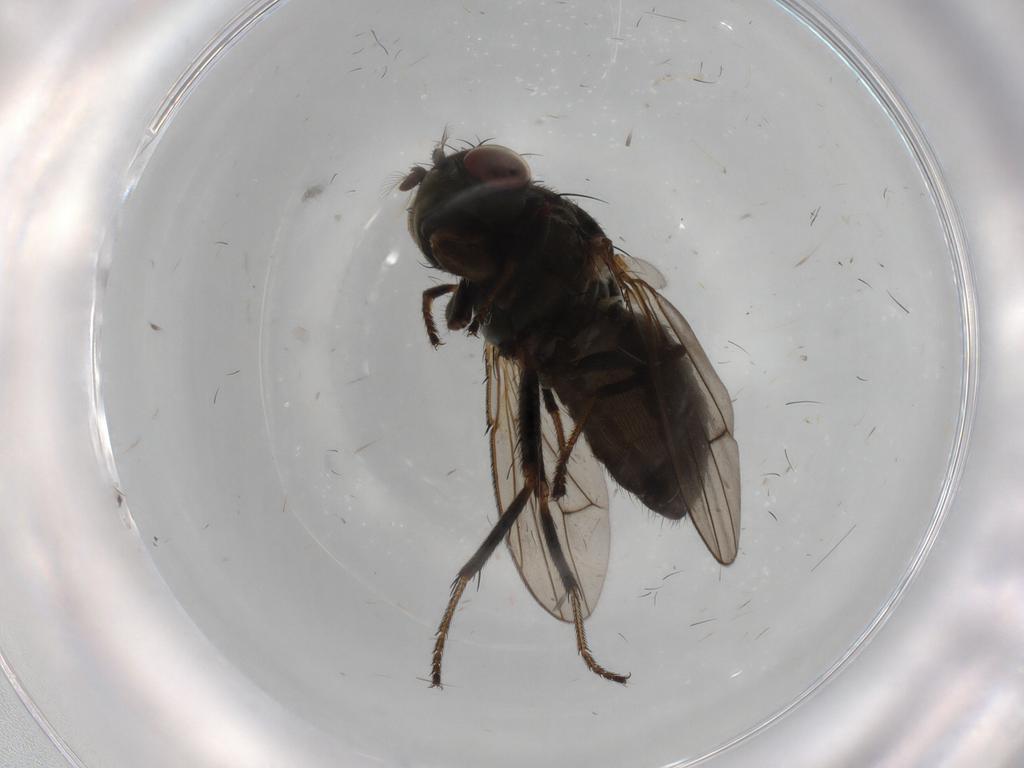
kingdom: Animalia
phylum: Arthropoda
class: Insecta
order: Diptera
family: Ephydridae
